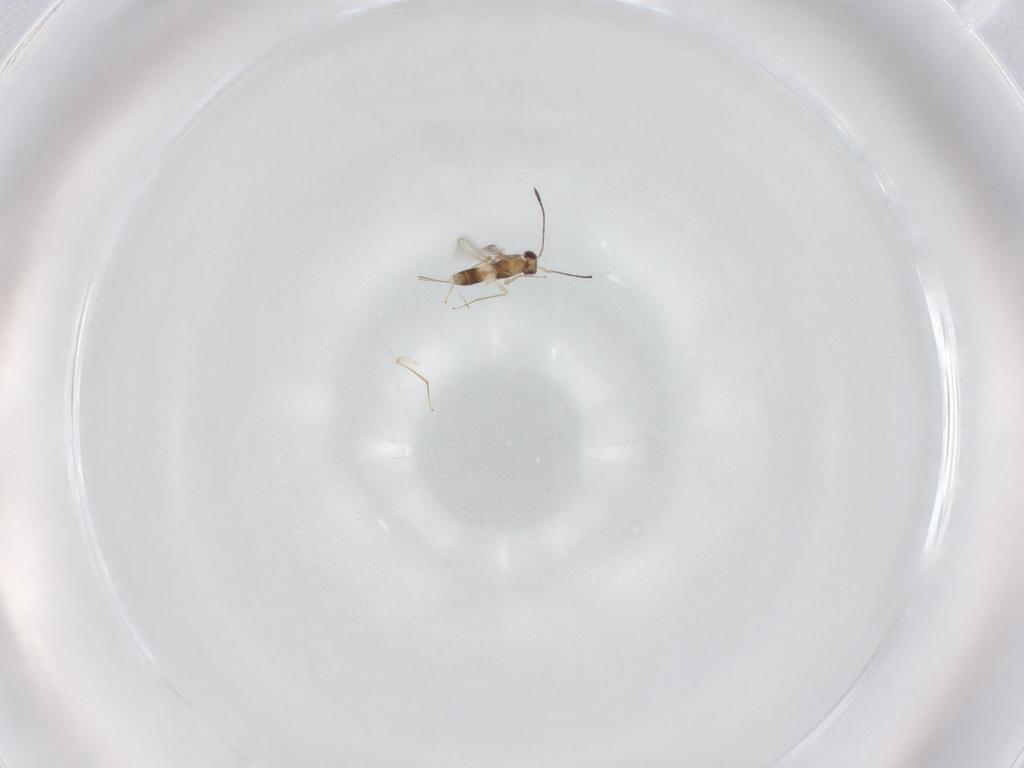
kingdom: Animalia
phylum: Arthropoda
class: Insecta
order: Hymenoptera
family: Mymaridae
